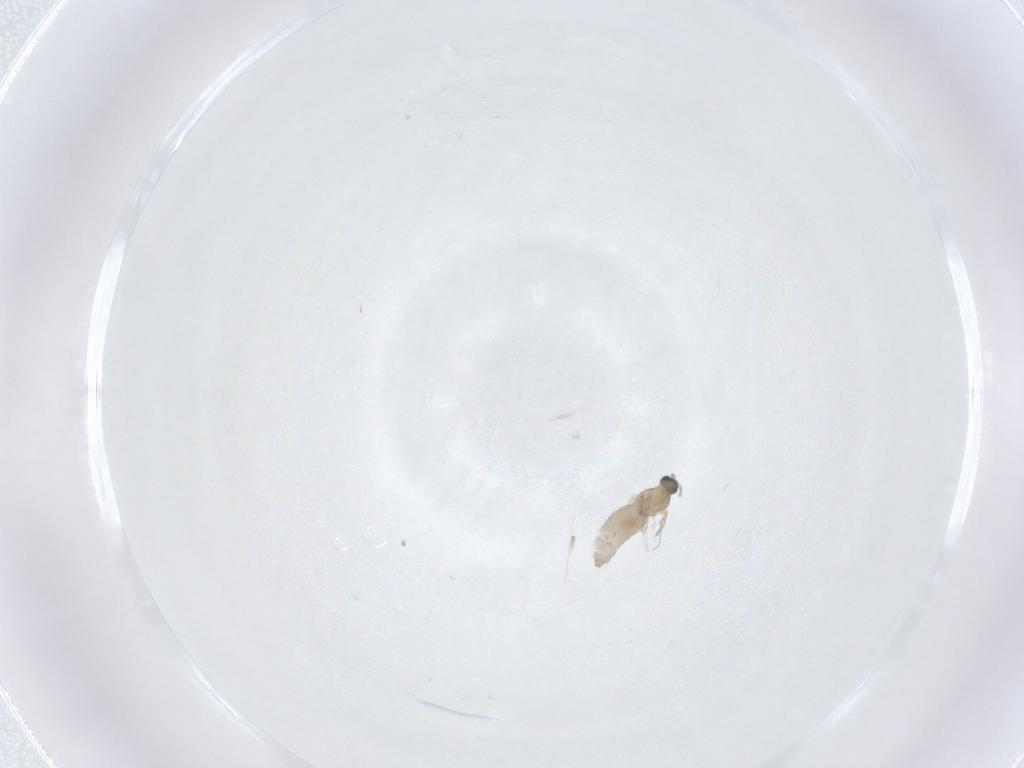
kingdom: Animalia
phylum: Arthropoda
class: Insecta
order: Diptera
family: Cecidomyiidae
